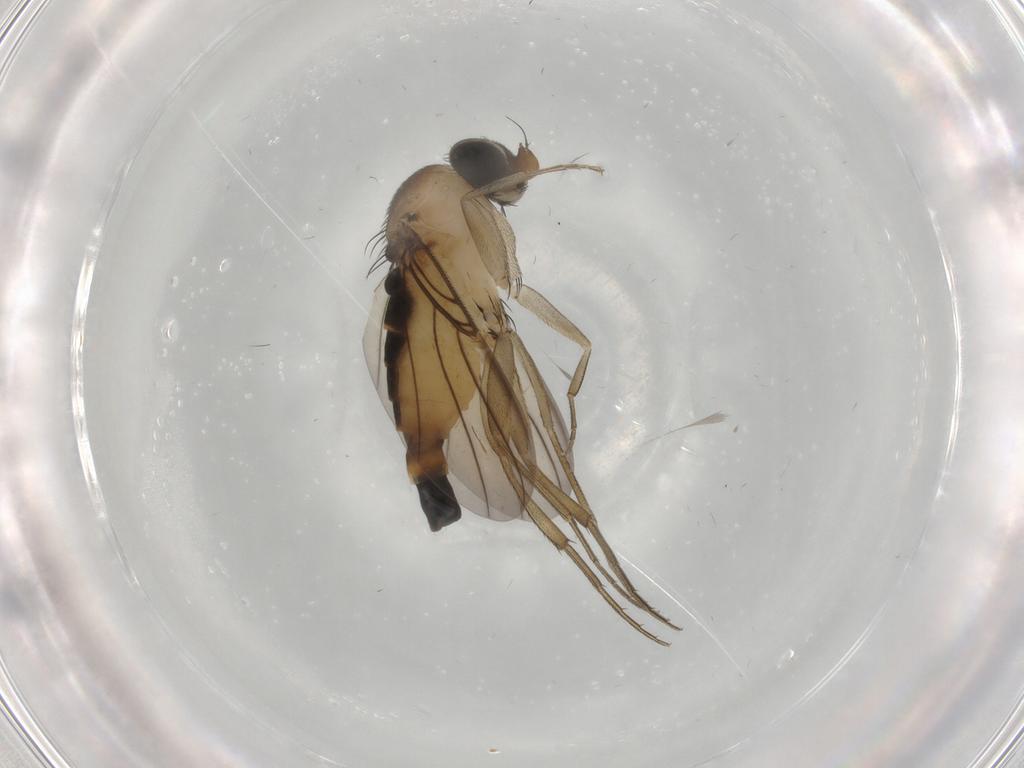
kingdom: Animalia
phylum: Arthropoda
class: Insecta
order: Diptera
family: Phoridae
